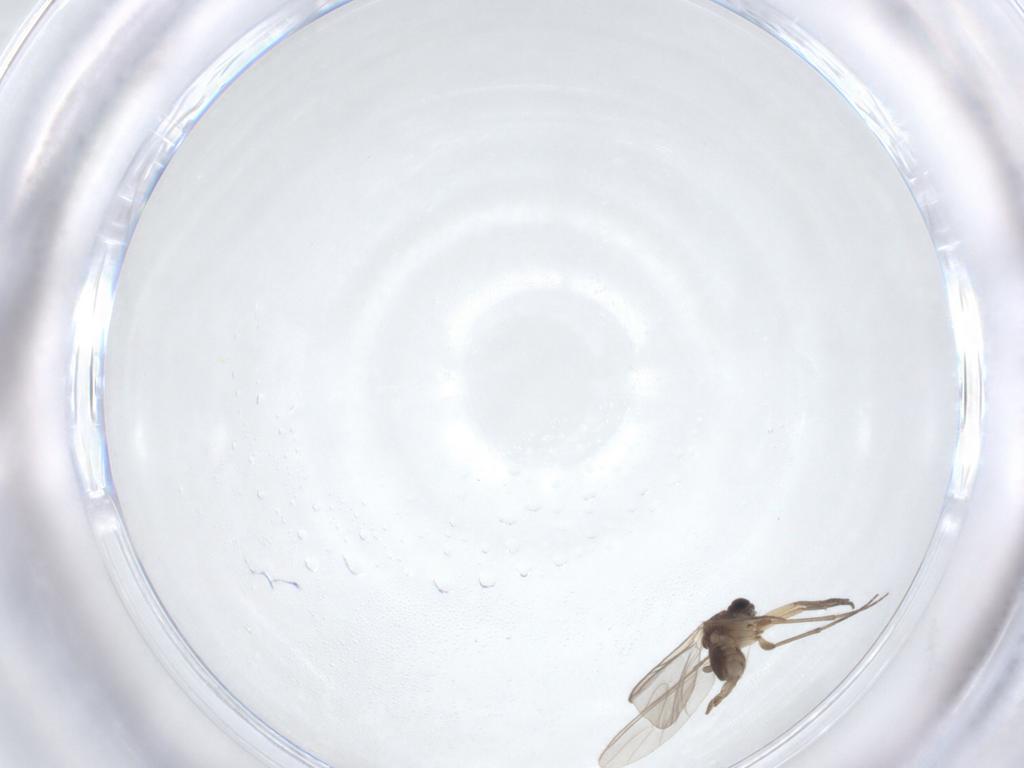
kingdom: Animalia
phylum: Arthropoda
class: Insecta
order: Diptera
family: Sciaridae
